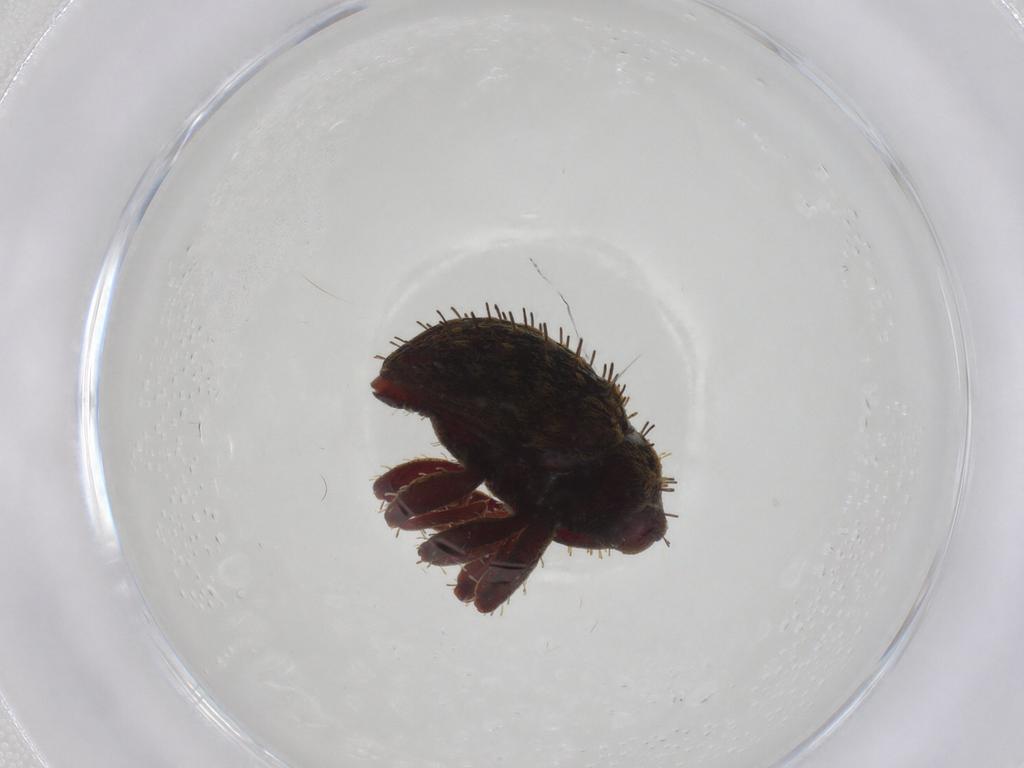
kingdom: Animalia
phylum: Arthropoda
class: Insecta
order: Coleoptera
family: Curculionidae
